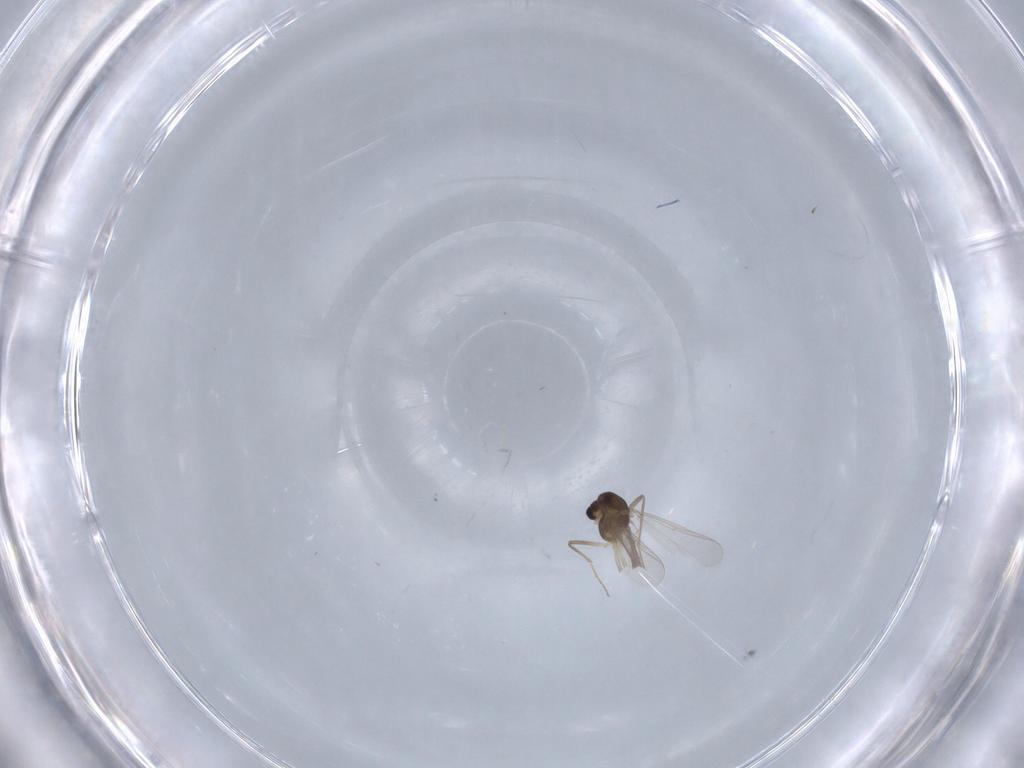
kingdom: Animalia
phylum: Arthropoda
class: Insecta
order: Diptera
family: Chironomidae
